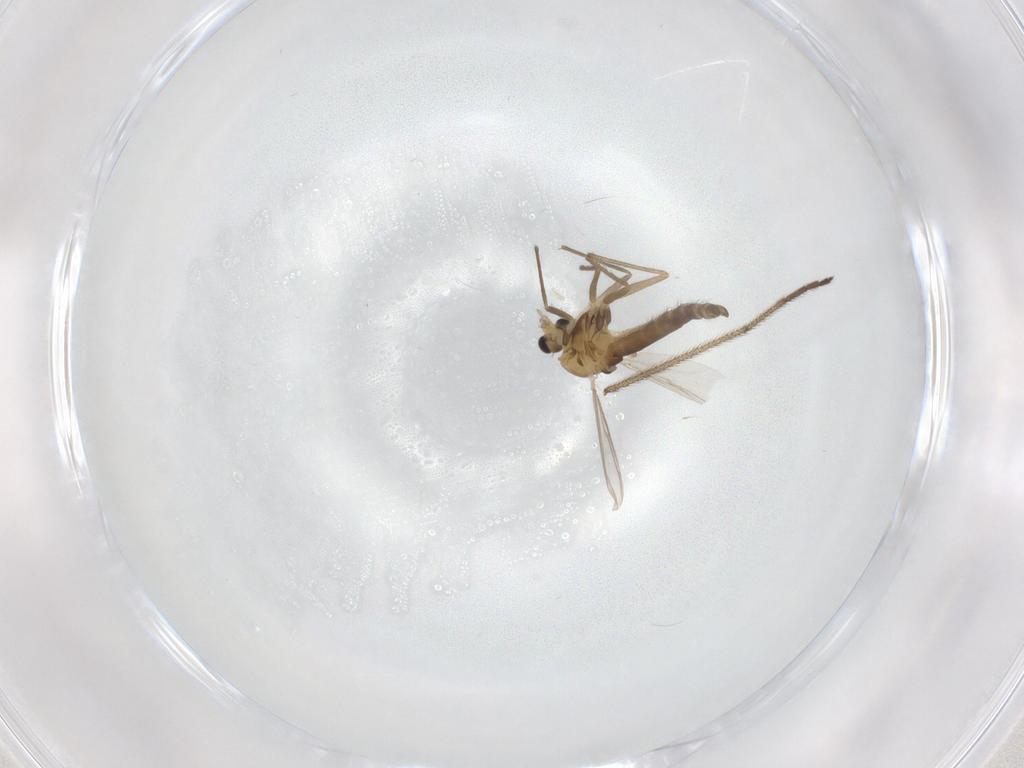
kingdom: Animalia
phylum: Arthropoda
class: Insecta
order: Diptera
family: Chironomidae
